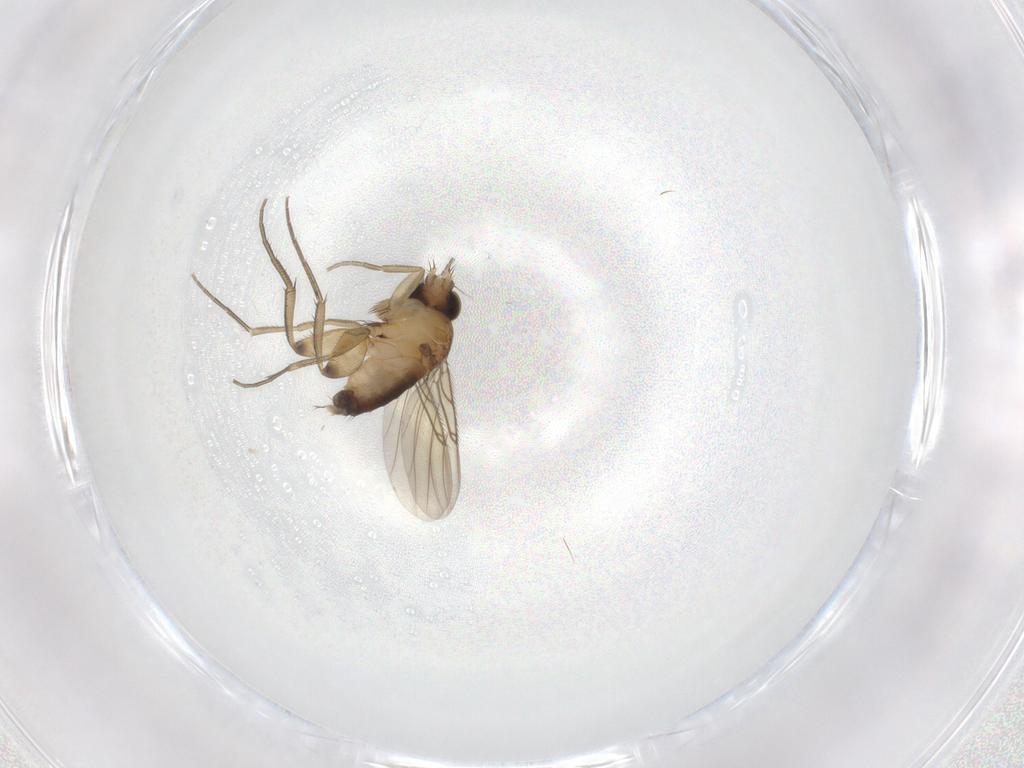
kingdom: Animalia
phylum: Arthropoda
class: Insecta
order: Diptera
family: Phoridae
